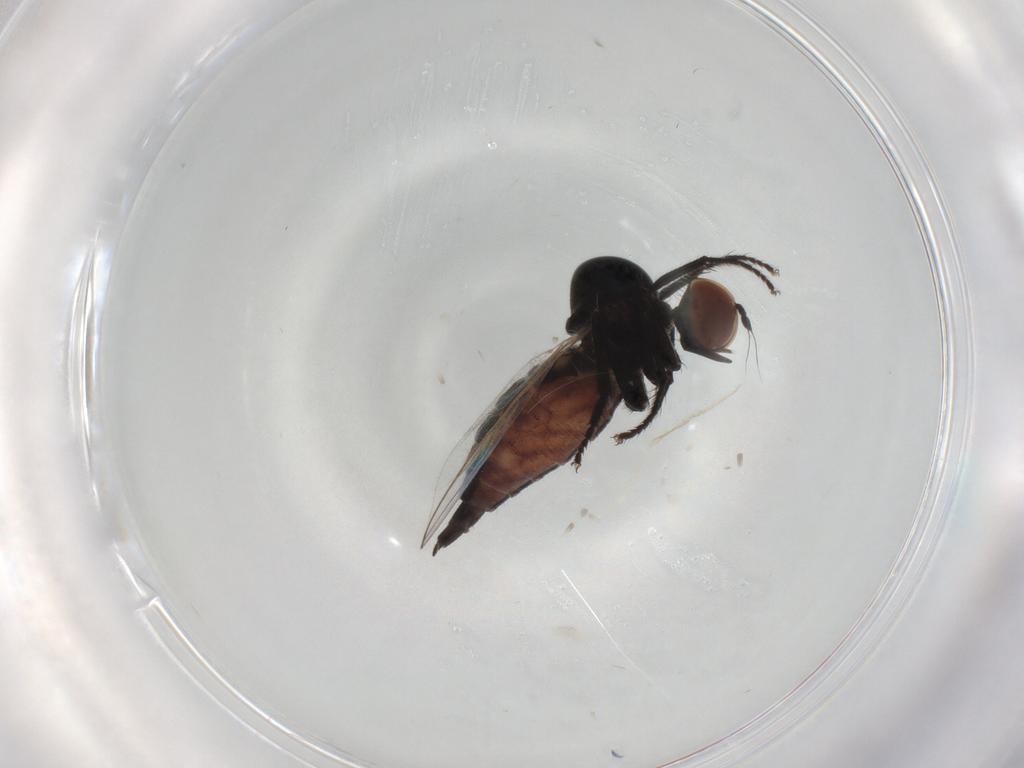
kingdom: Animalia
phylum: Arthropoda
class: Insecta
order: Diptera
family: Hybotidae
